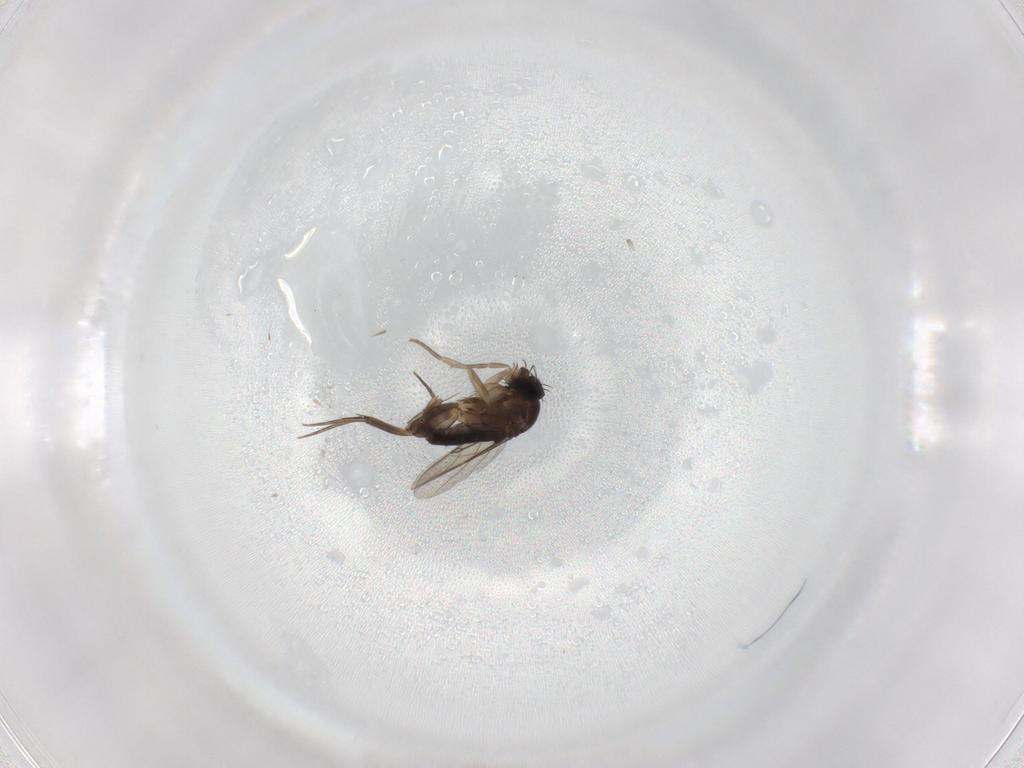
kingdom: Animalia
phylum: Arthropoda
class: Insecta
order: Diptera
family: Phoridae
